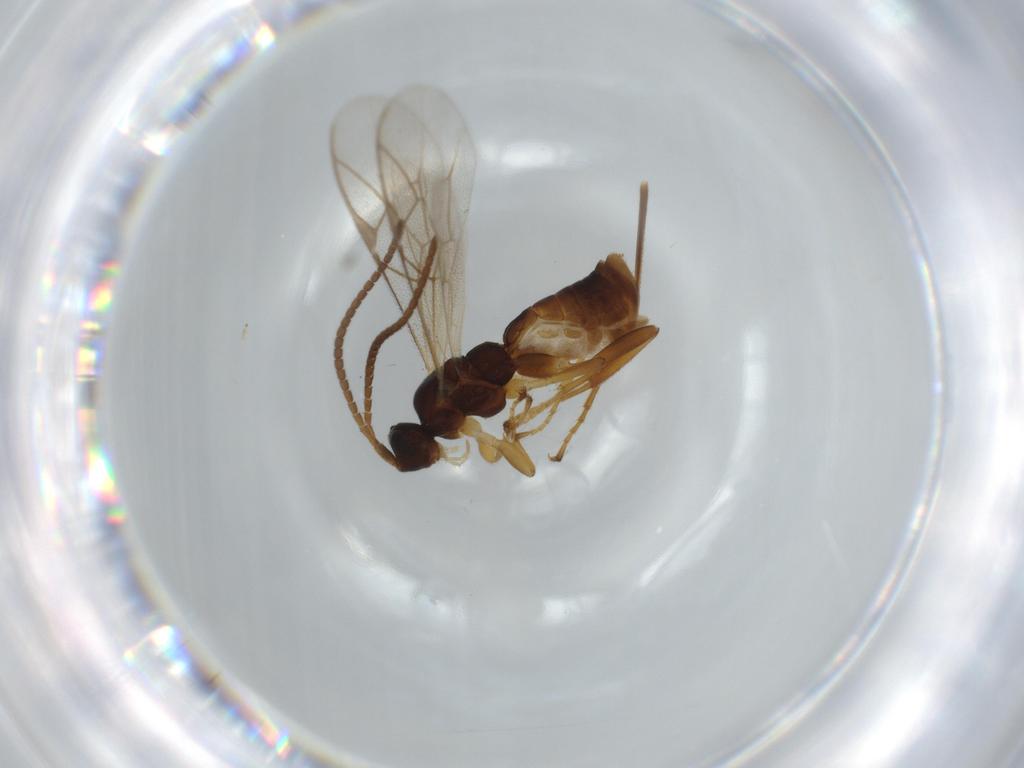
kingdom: Animalia
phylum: Arthropoda
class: Insecta
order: Hymenoptera
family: Ichneumonidae
